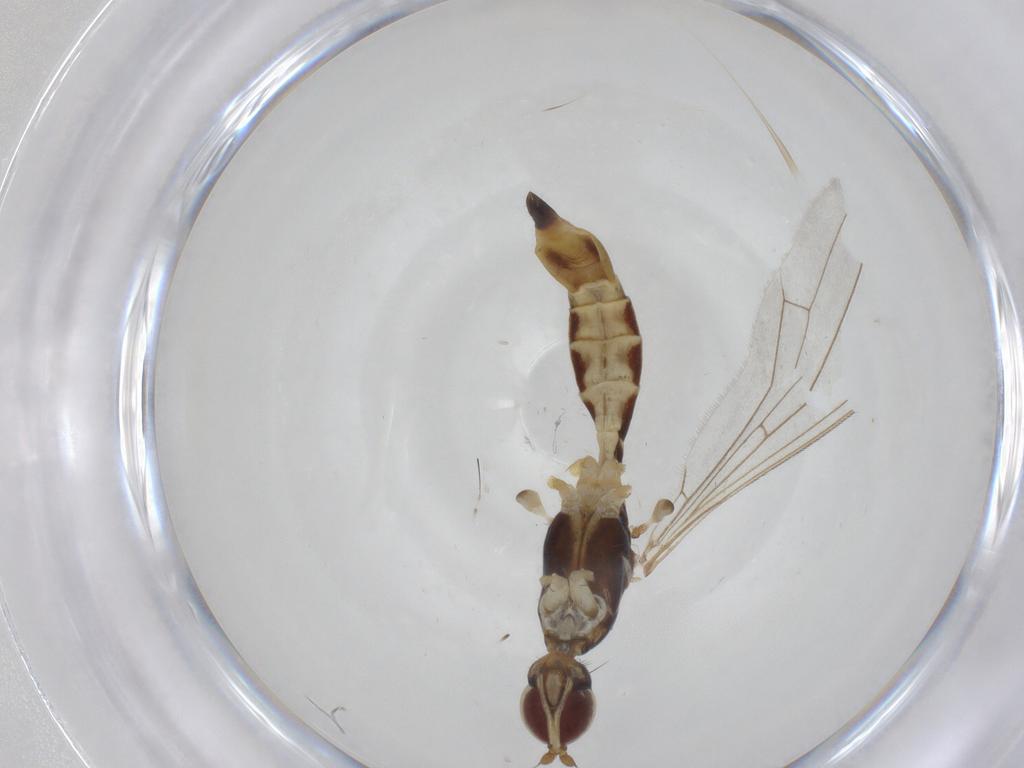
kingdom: Animalia
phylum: Arthropoda
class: Insecta
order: Diptera
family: Micropezidae
